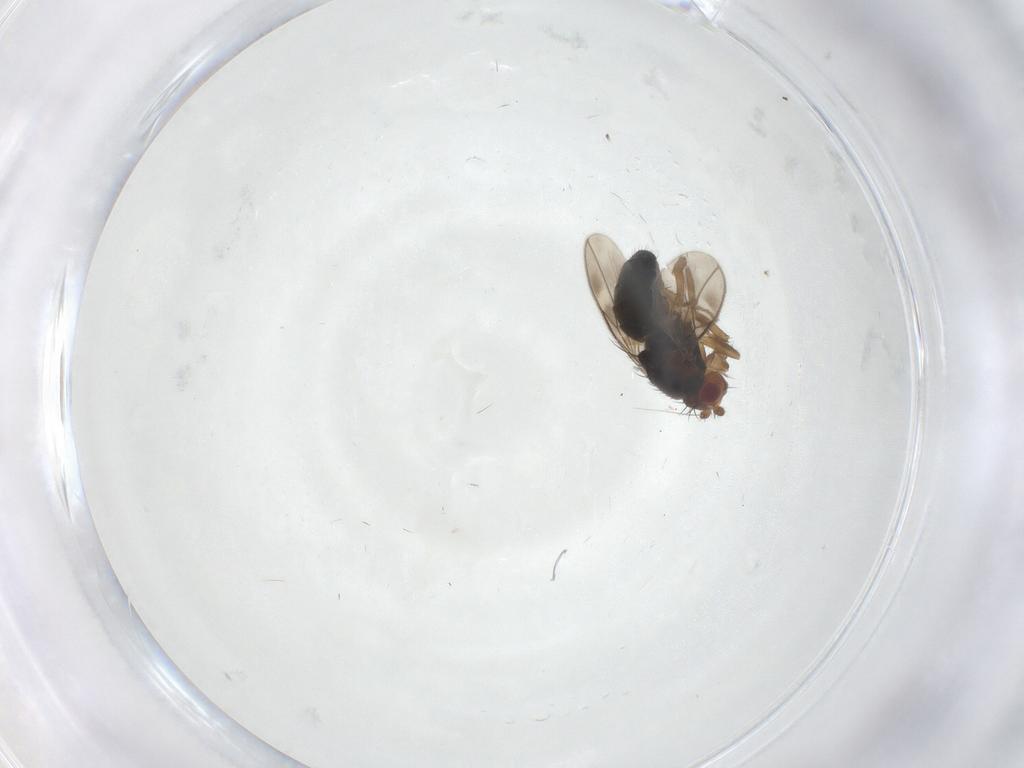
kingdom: Animalia
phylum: Arthropoda
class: Insecta
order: Diptera
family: Sphaeroceridae
